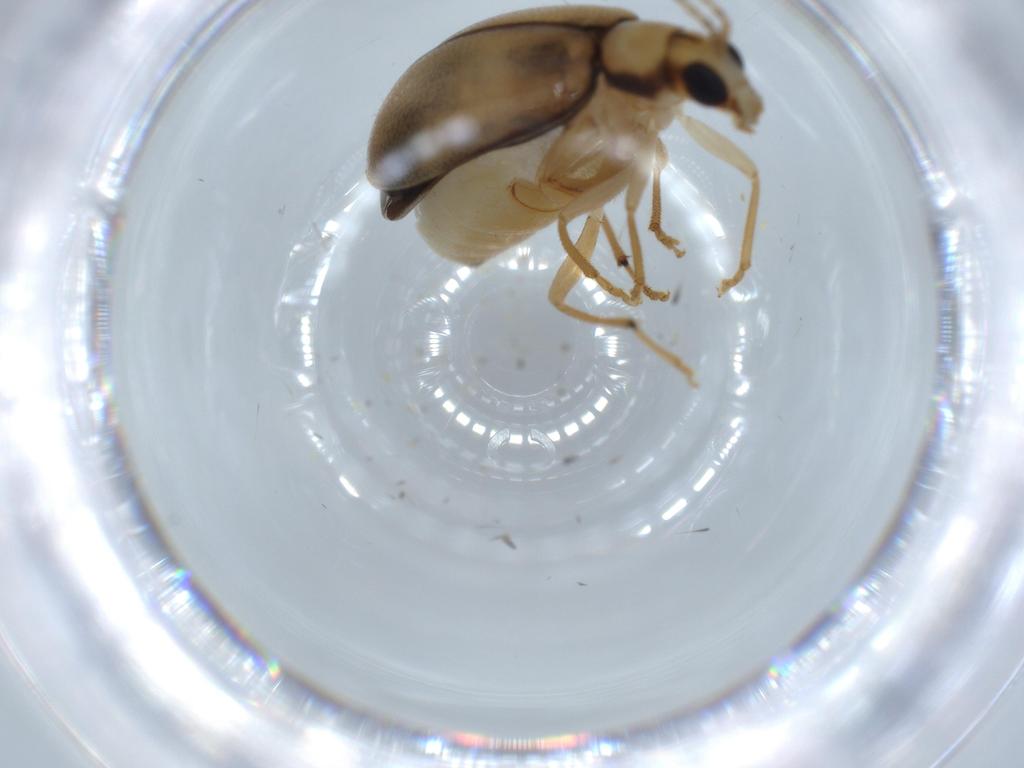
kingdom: Animalia
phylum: Arthropoda
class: Insecta
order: Coleoptera
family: Chrysomelidae
